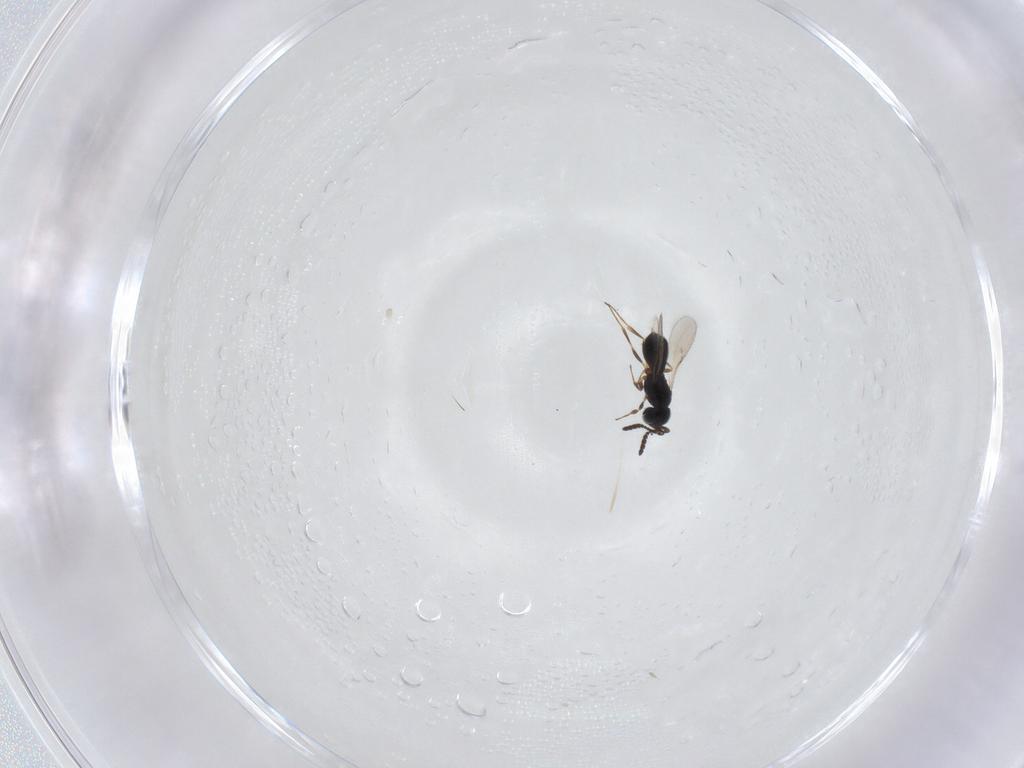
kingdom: Animalia
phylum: Arthropoda
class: Insecta
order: Hymenoptera
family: Scelionidae
